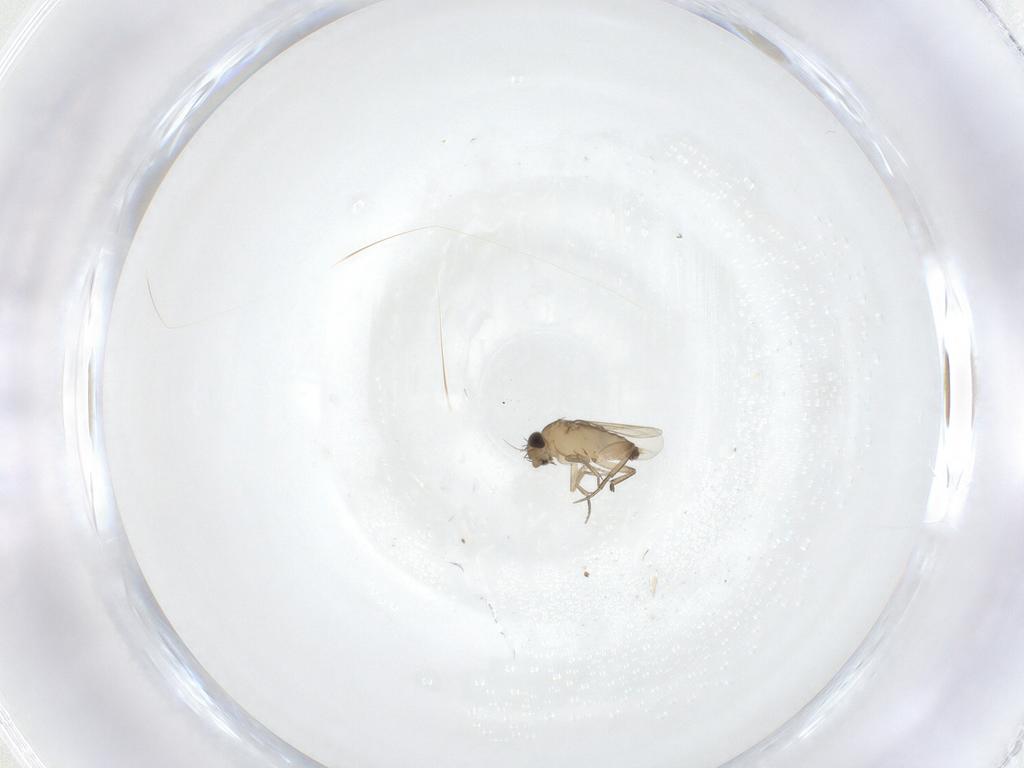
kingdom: Animalia
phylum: Arthropoda
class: Insecta
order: Diptera
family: Phoridae
